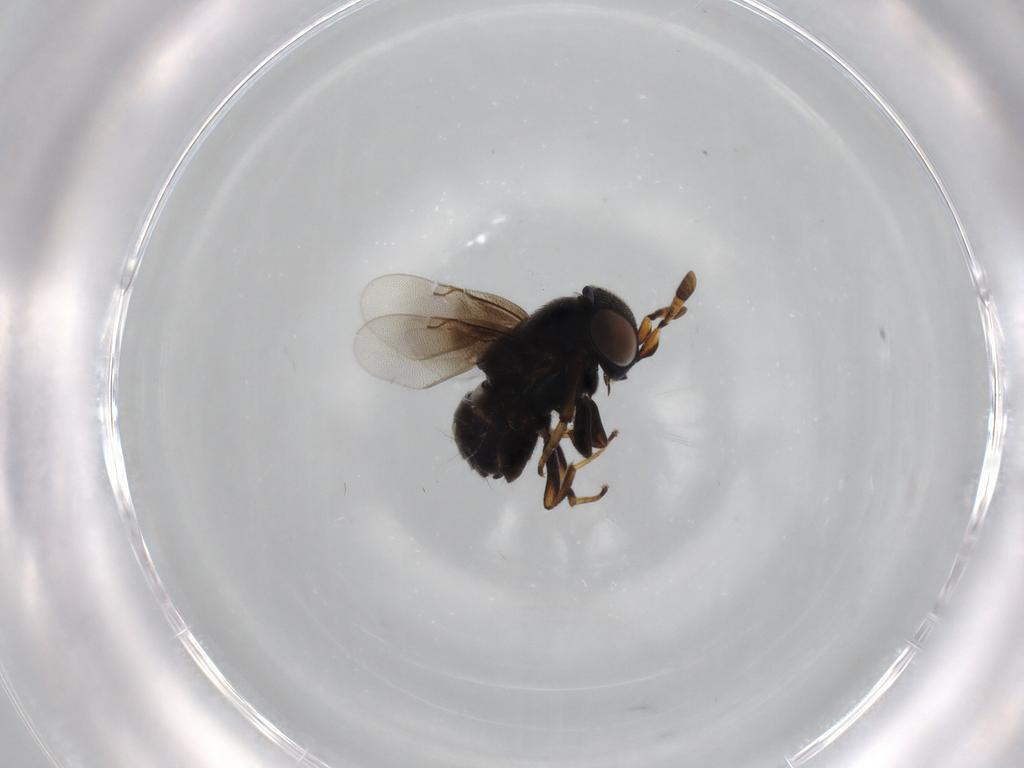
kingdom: Animalia
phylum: Arthropoda
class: Insecta
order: Hymenoptera
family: Encyrtidae
